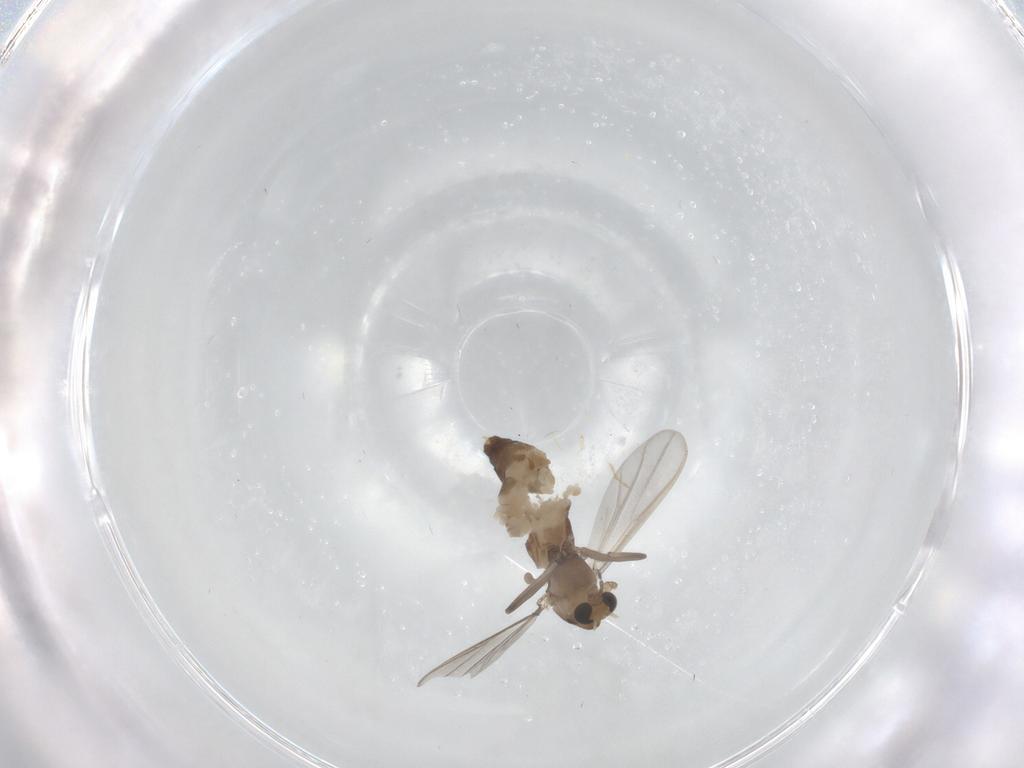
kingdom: Animalia
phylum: Arthropoda
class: Insecta
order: Diptera
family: Chironomidae
